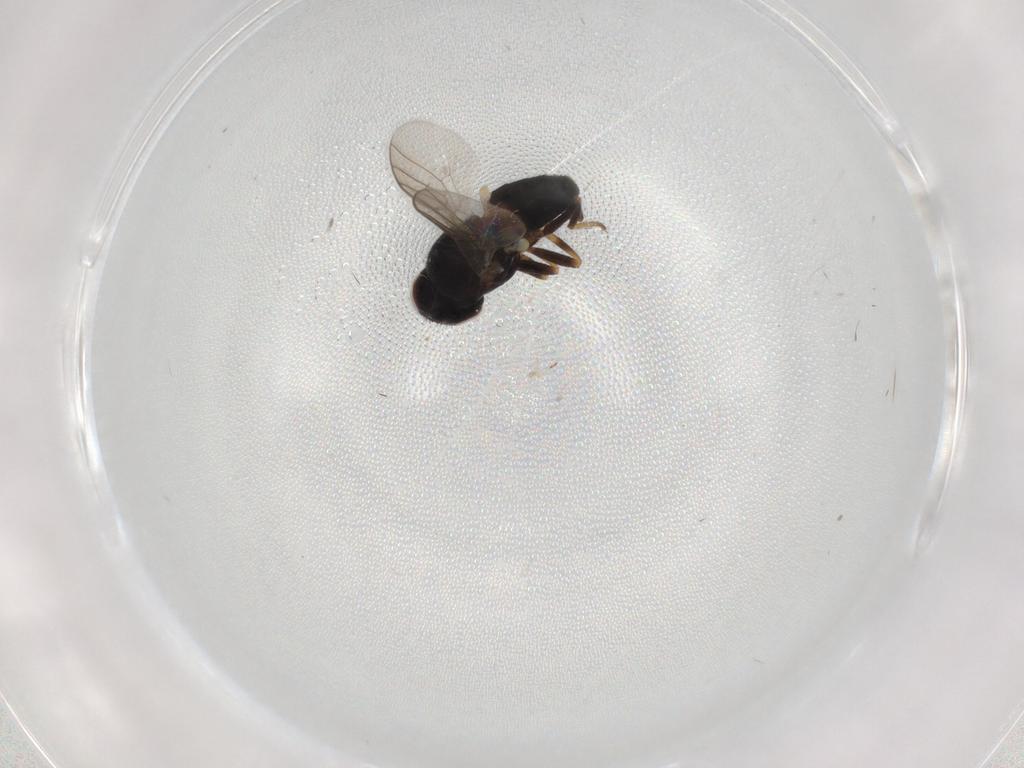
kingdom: Animalia
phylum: Arthropoda
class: Insecta
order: Diptera
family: Chloropidae
